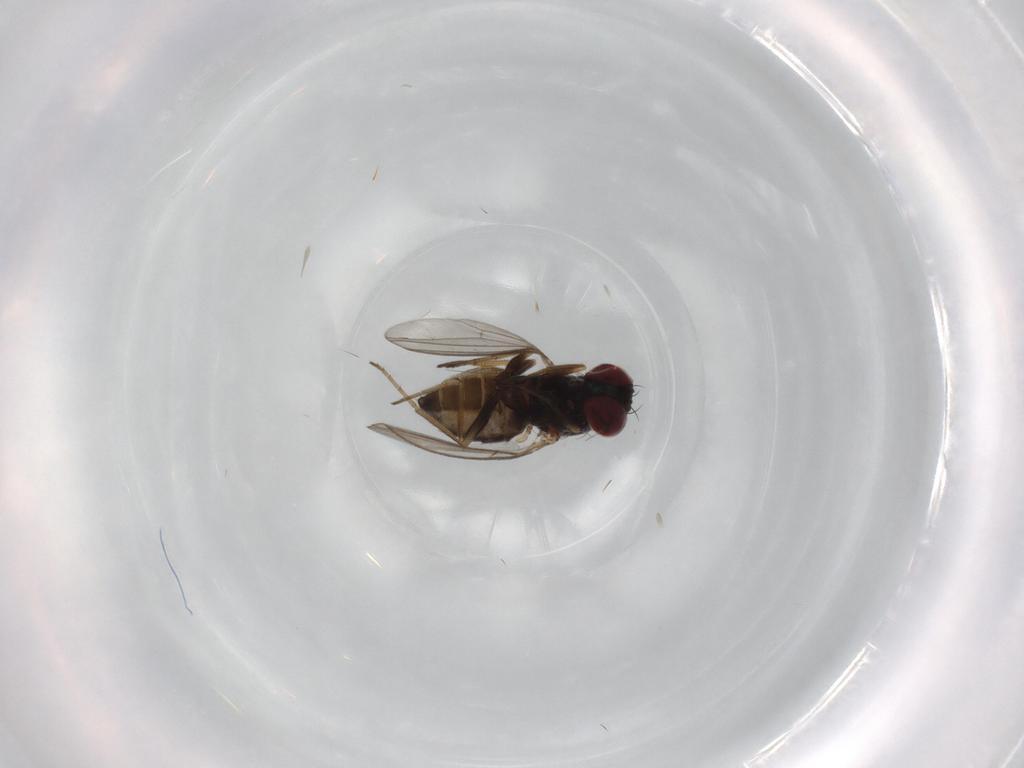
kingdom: Animalia
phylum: Arthropoda
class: Insecta
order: Diptera
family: Dolichopodidae
